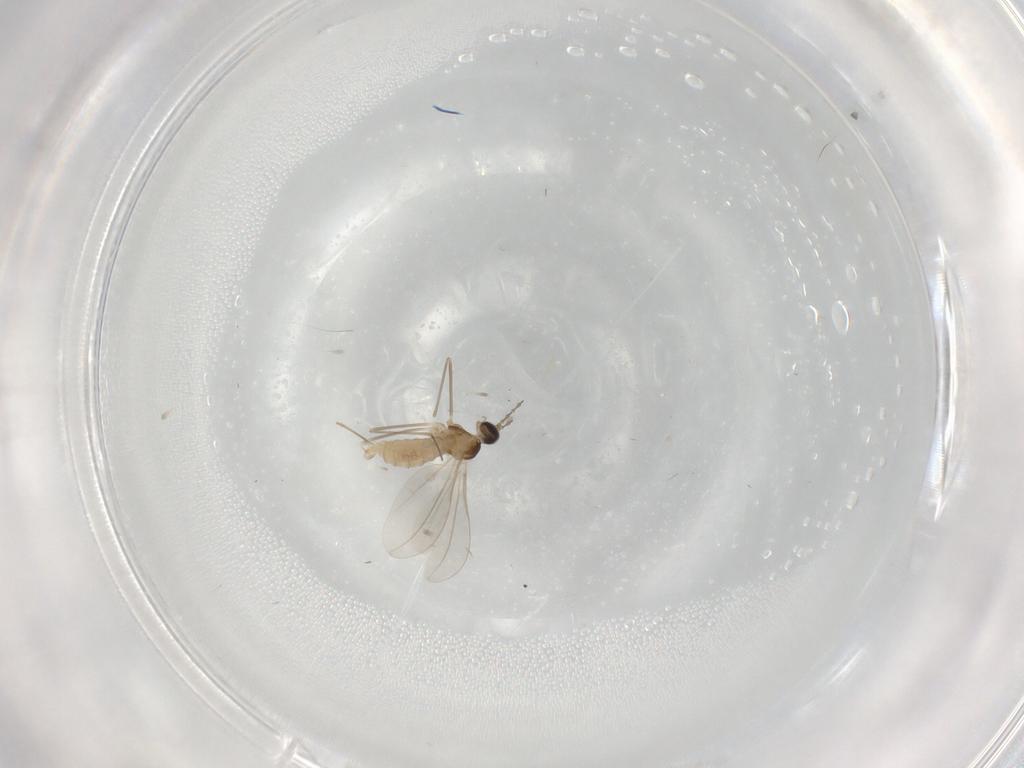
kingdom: Animalia
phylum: Arthropoda
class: Insecta
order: Diptera
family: Cecidomyiidae
